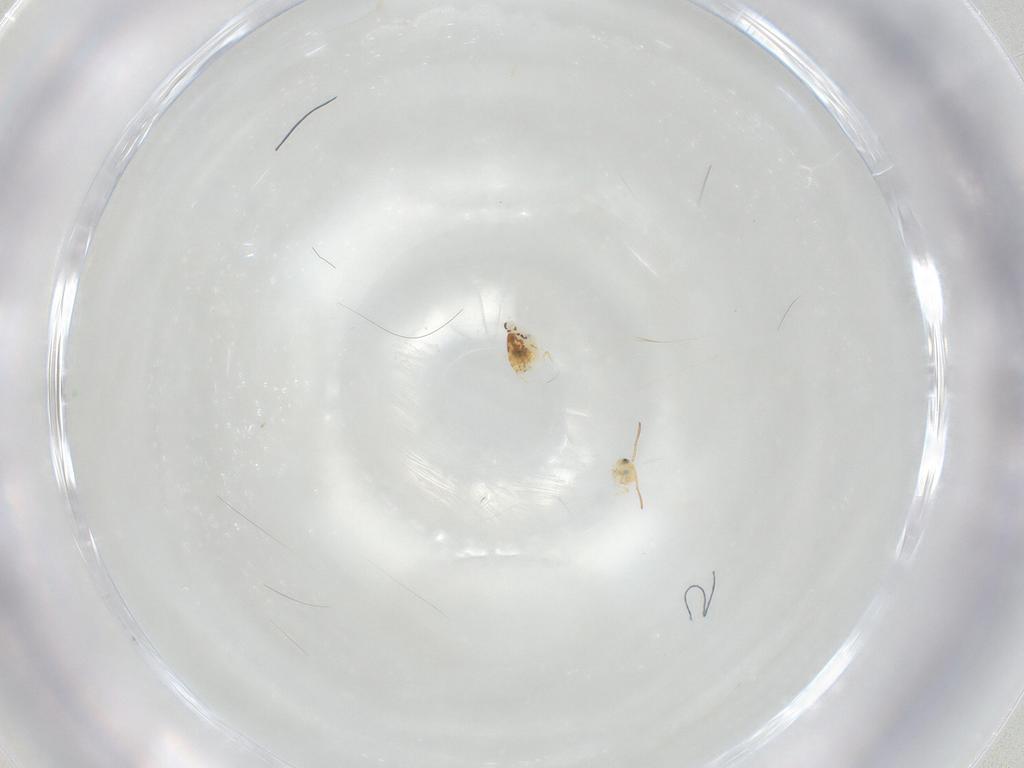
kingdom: Animalia
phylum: Arthropoda
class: Collembola
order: Symphypleona
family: Bourletiellidae
